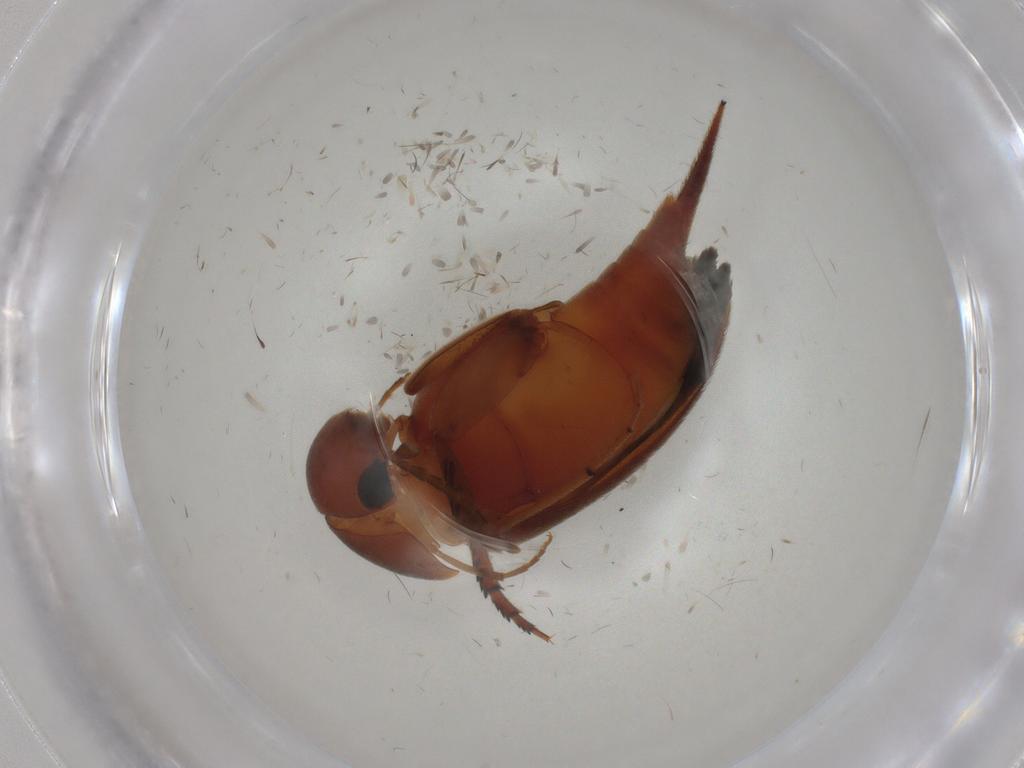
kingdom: Animalia
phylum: Arthropoda
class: Insecta
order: Coleoptera
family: Mordellidae
